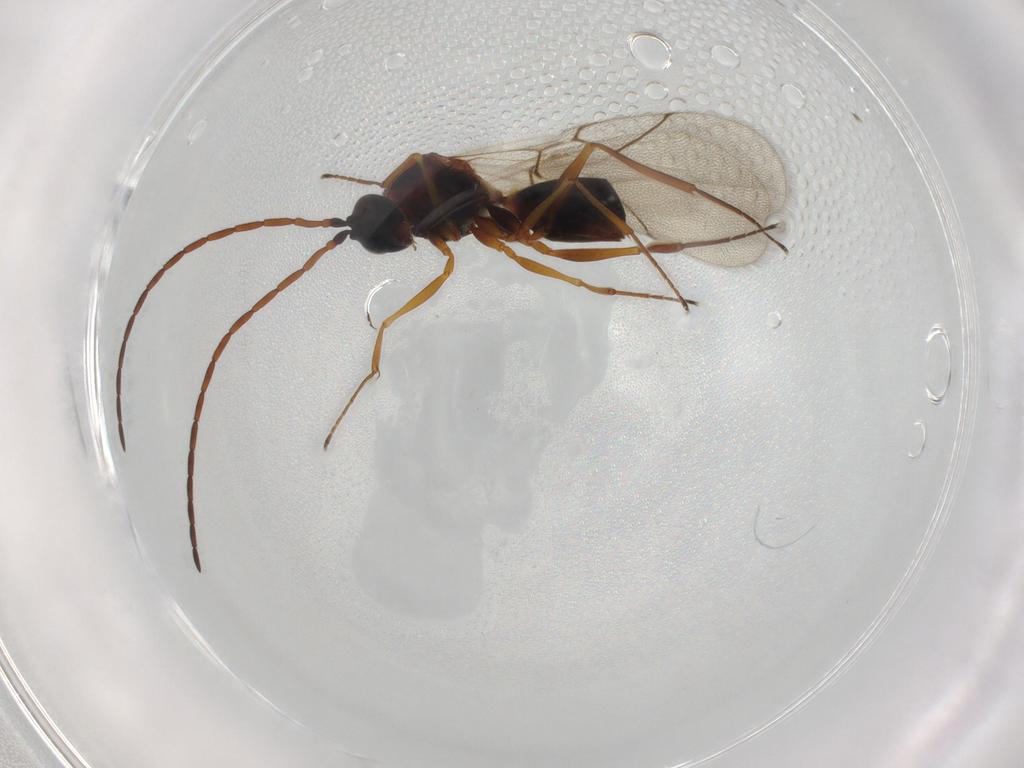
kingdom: Animalia
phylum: Arthropoda
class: Insecta
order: Hymenoptera
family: Figitidae
